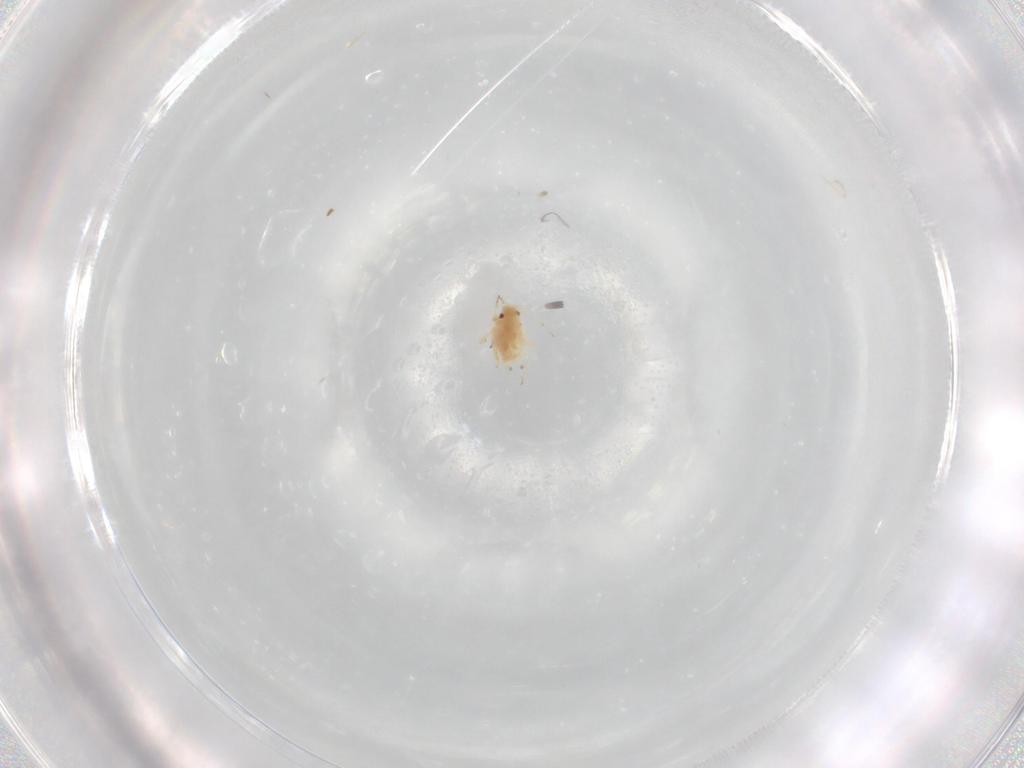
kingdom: Animalia
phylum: Arthropoda
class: Insecta
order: Hemiptera
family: Aphididae
